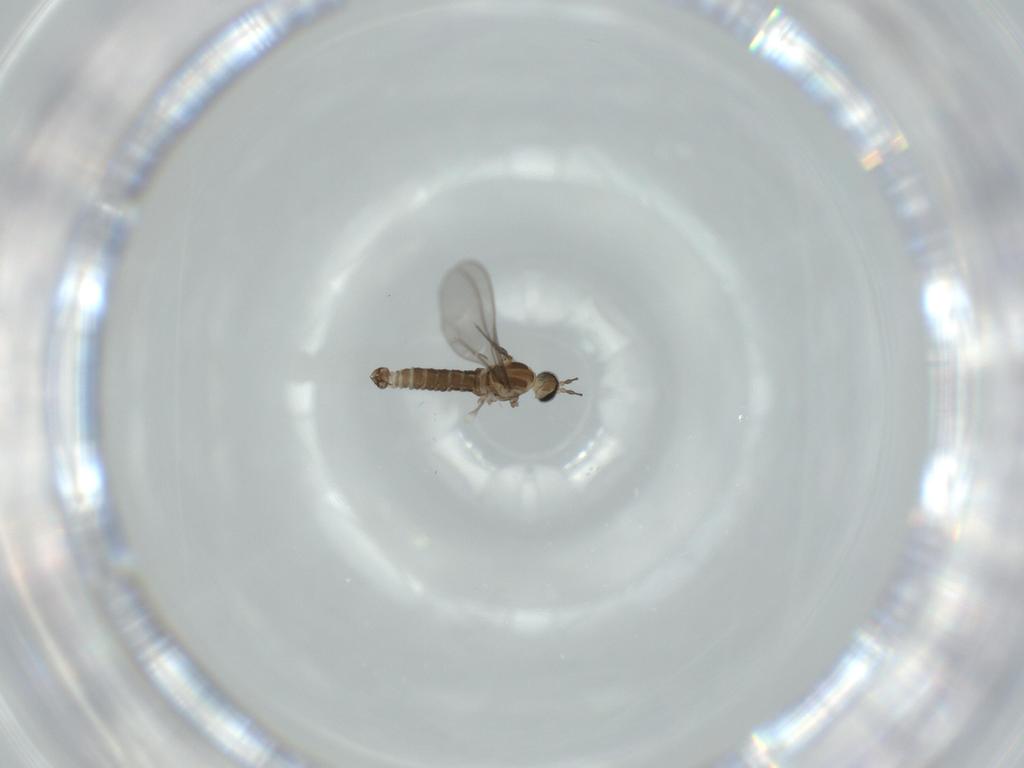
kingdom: Animalia
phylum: Arthropoda
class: Insecta
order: Diptera
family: Cecidomyiidae
